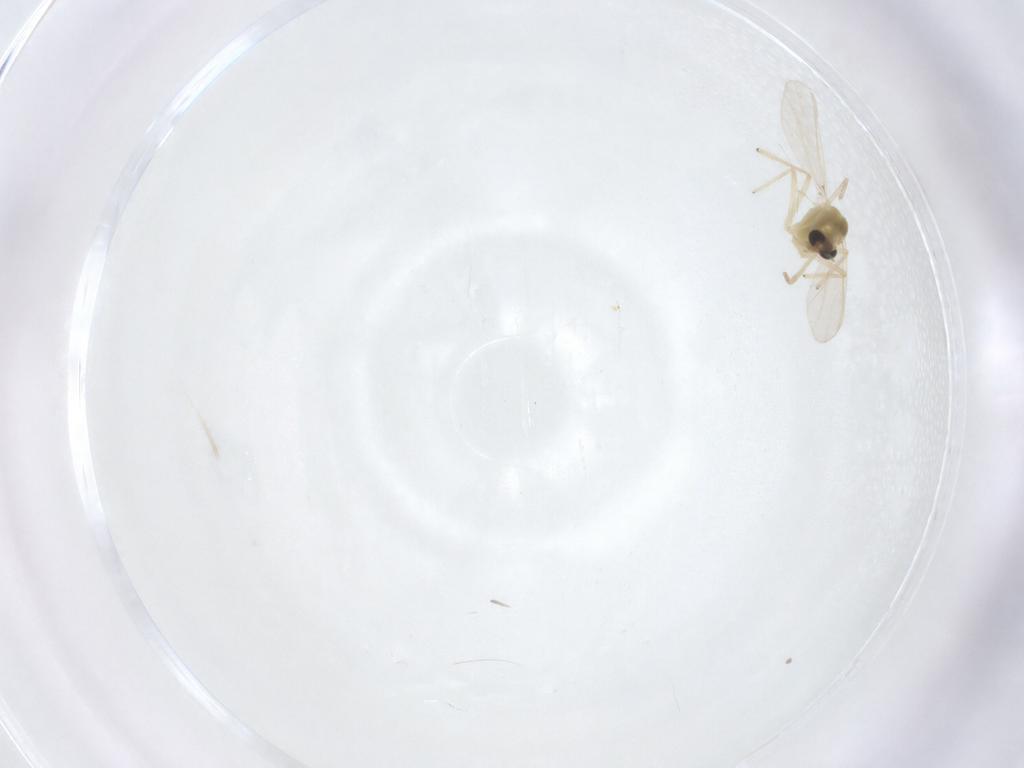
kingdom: Animalia
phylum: Arthropoda
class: Insecta
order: Diptera
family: Chironomidae
